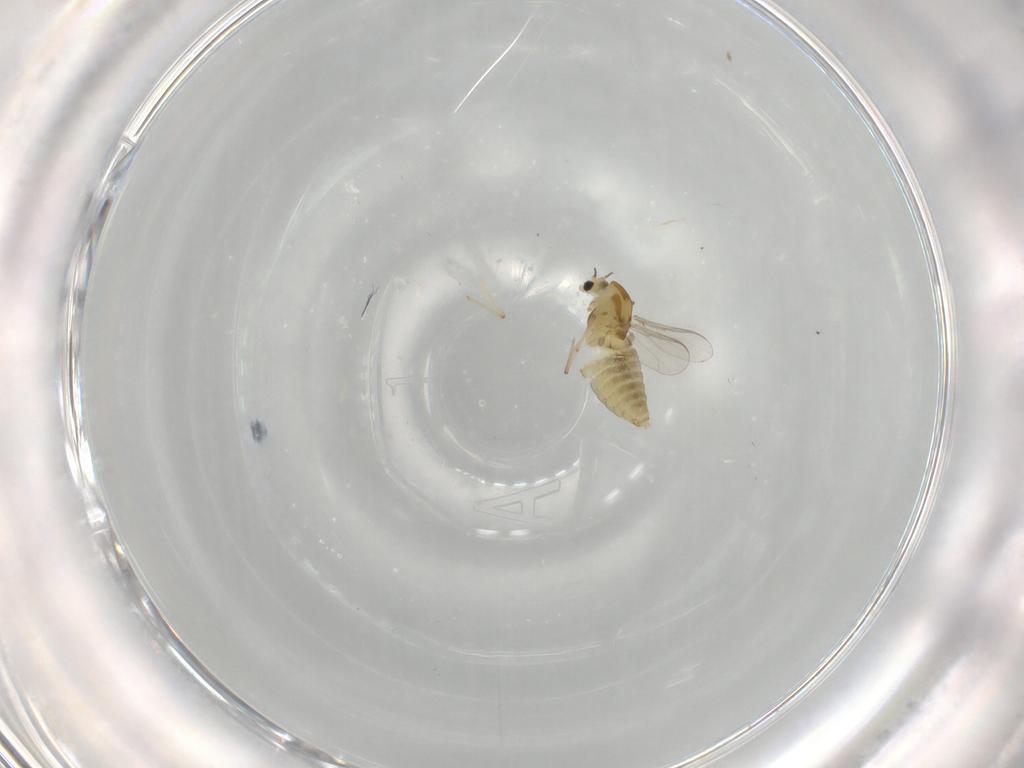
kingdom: Animalia
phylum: Arthropoda
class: Insecta
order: Diptera
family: Chironomidae
